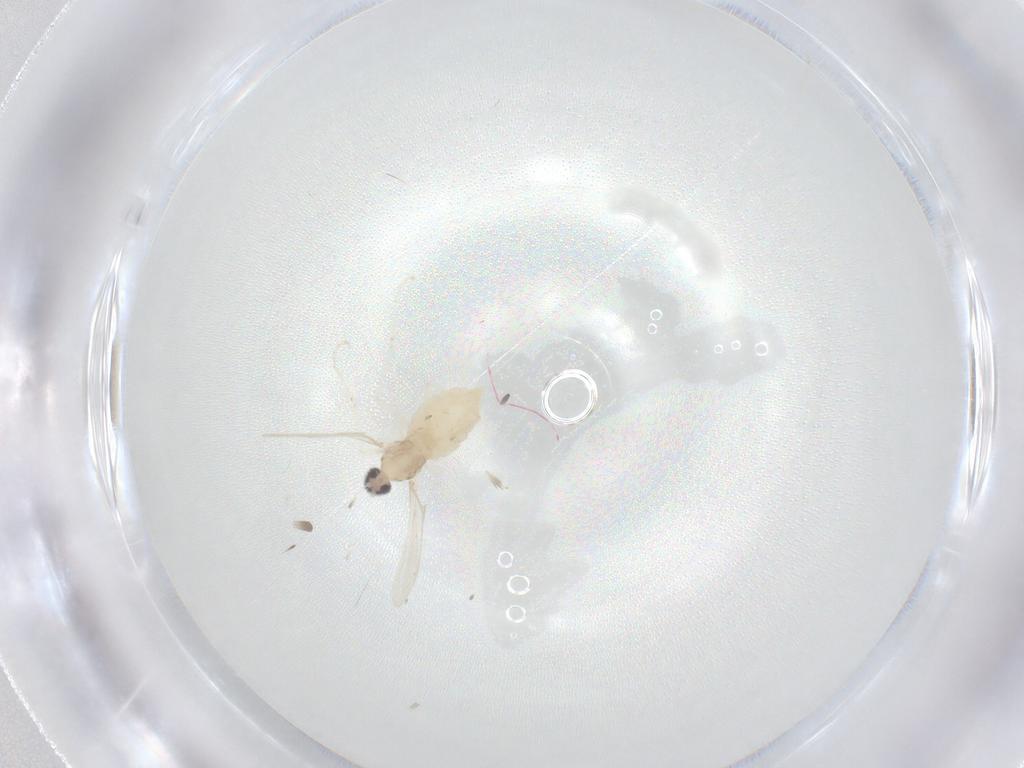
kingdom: Animalia
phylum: Arthropoda
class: Insecta
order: Diptera
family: Cecidomyiidae
